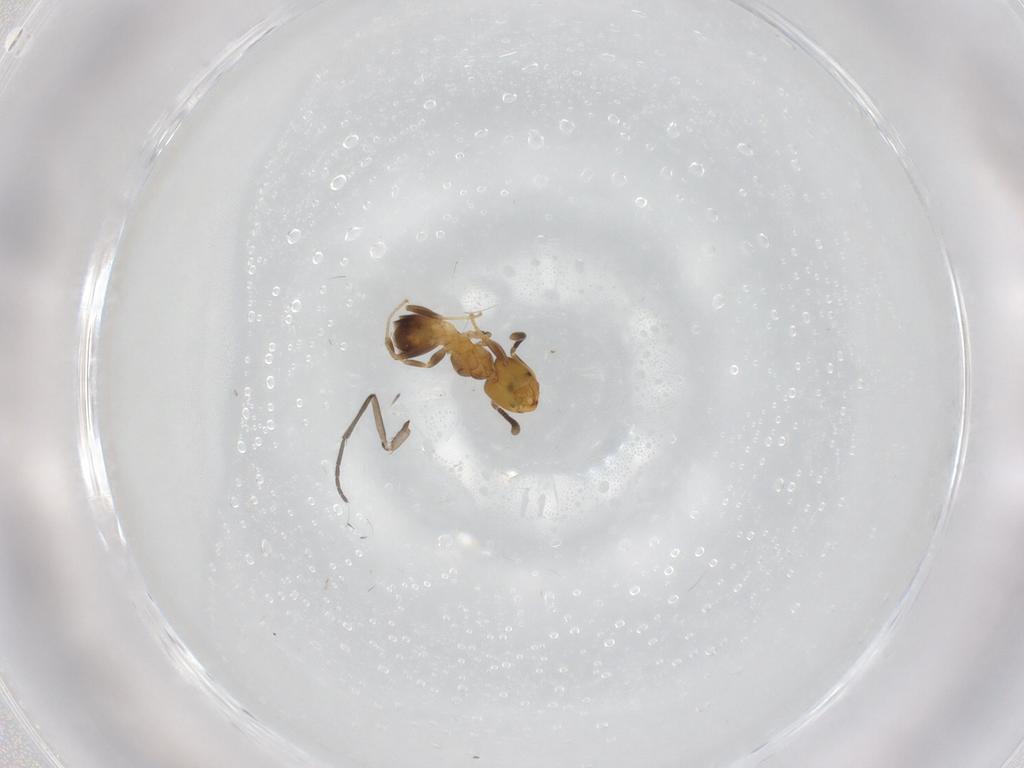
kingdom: Animalia
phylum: Arthropoda
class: Insecta
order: Hymenoptera
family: Formicidae
